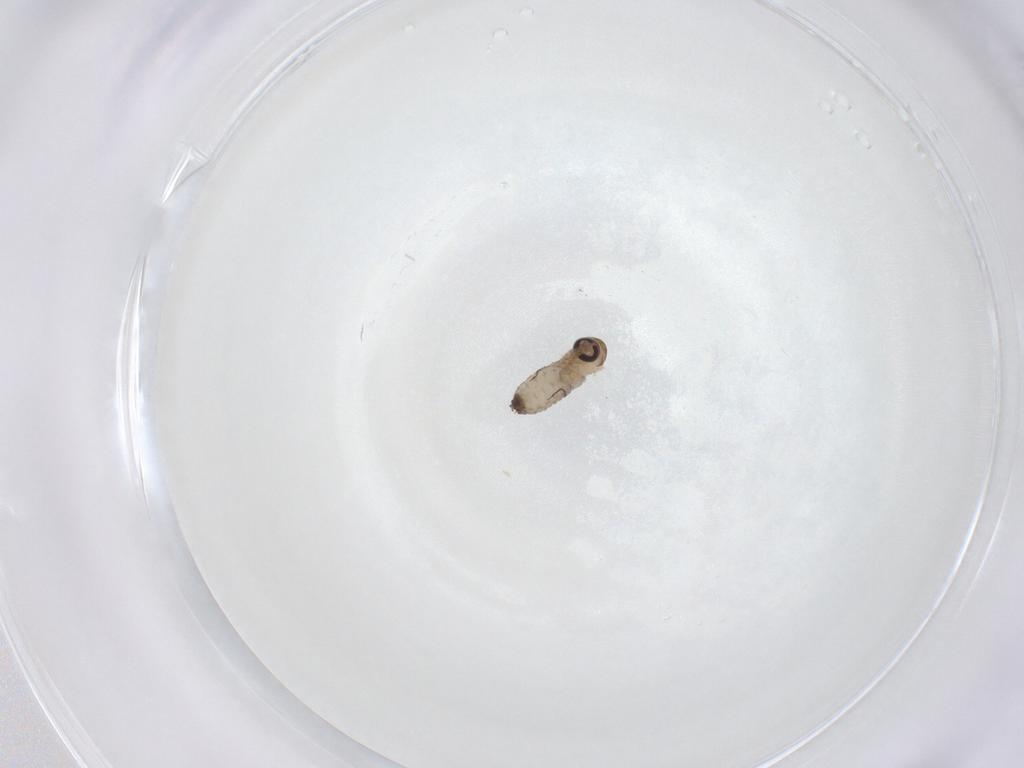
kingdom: Animalia
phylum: Arthropoda
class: Insecta
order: Diptera
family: Psychodidae
